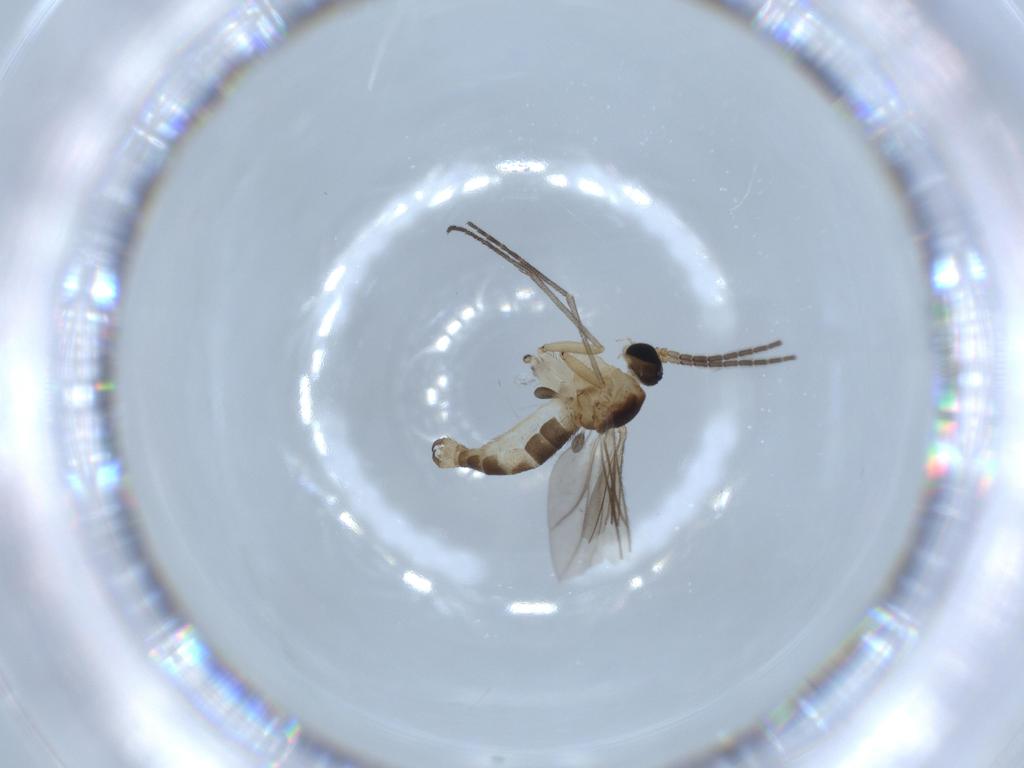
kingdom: Animalia
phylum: Arthropoda
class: Insecta
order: Diptera
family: Sciaridae
